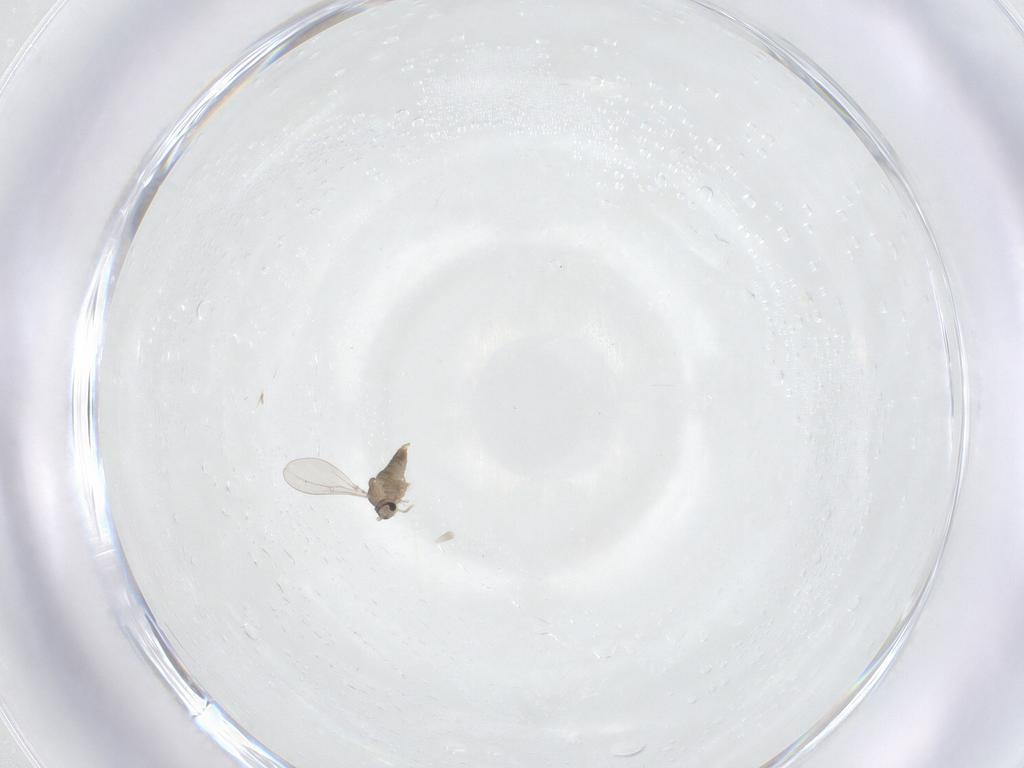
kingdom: Animalia
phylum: Arthropoda
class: Insecta
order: Diptera
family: Cecidomyiidae
